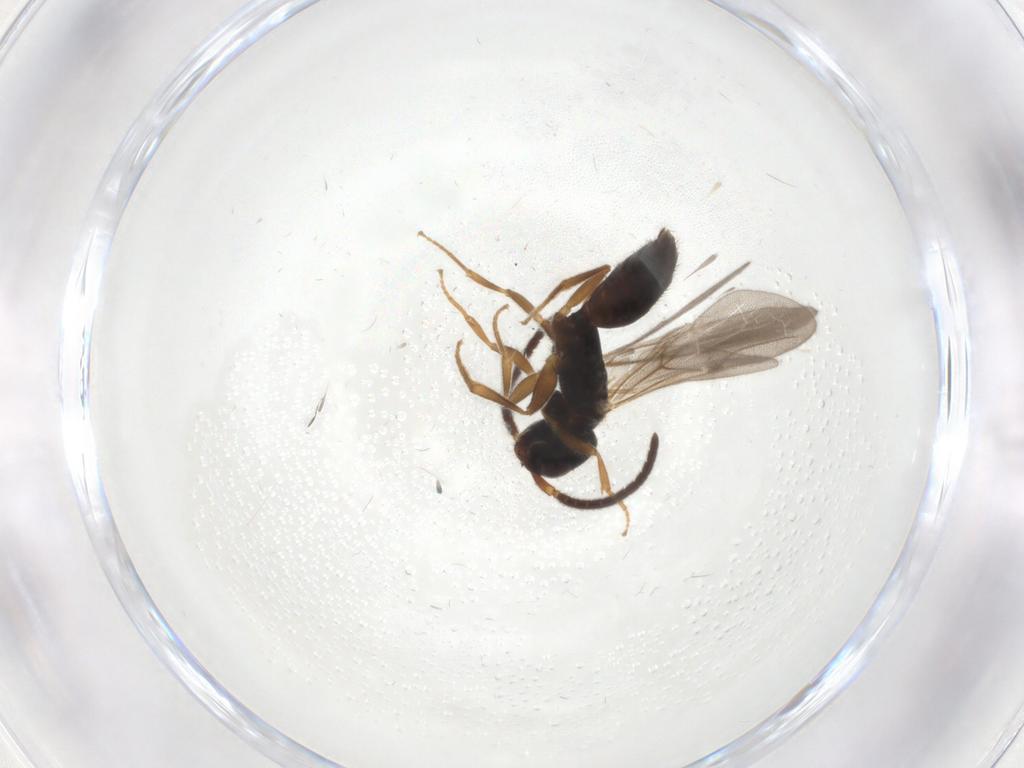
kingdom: Animalia
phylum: Arthropoda
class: Insecta
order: Hymenoptera
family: Bethylidae
